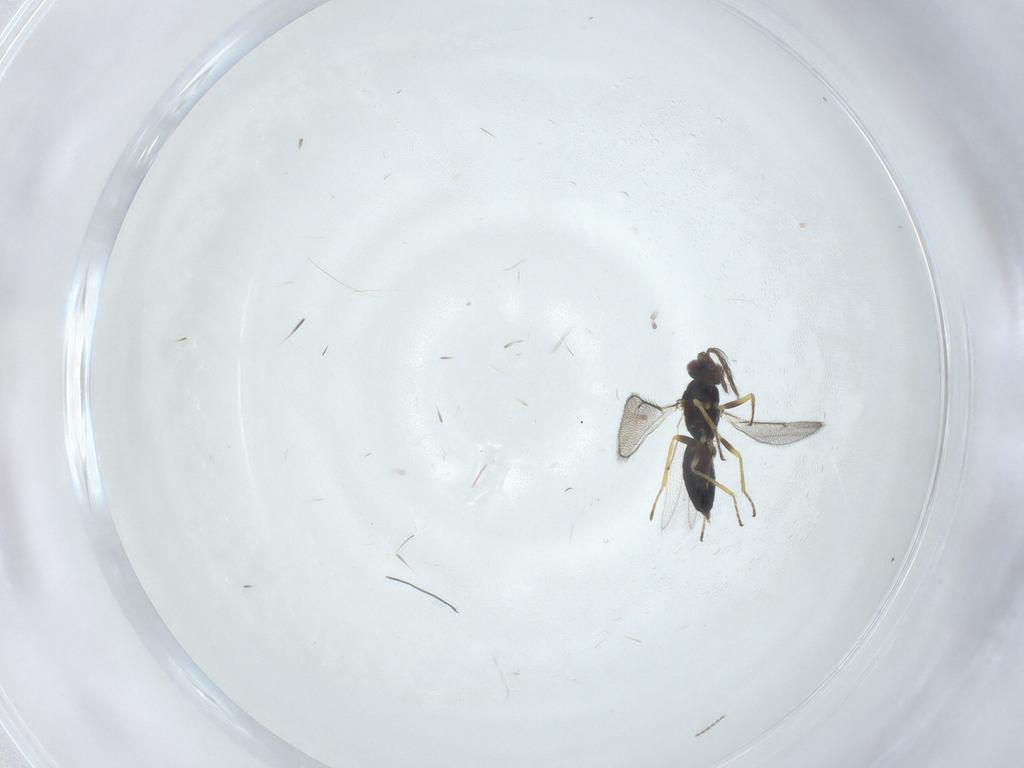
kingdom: Animalia
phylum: Arthropoda
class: Insecta
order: Hymenoptera
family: Eulophidae
